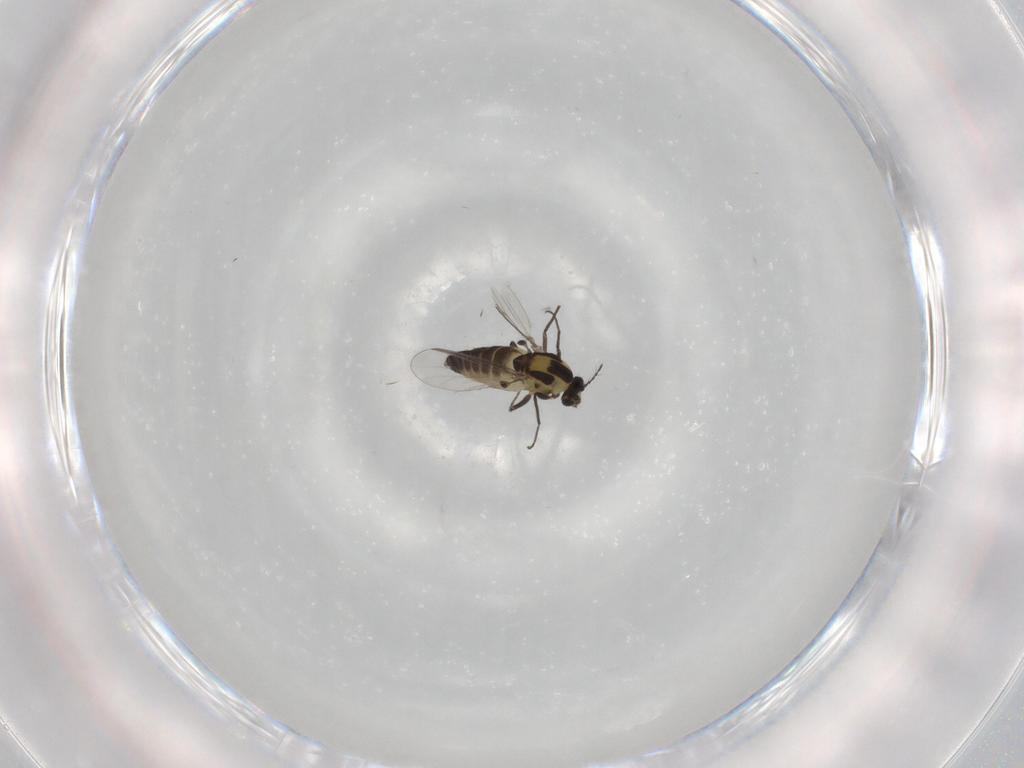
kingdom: Animalia
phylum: Arthropoda
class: Insecta
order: Diptera
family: Chironomidae
